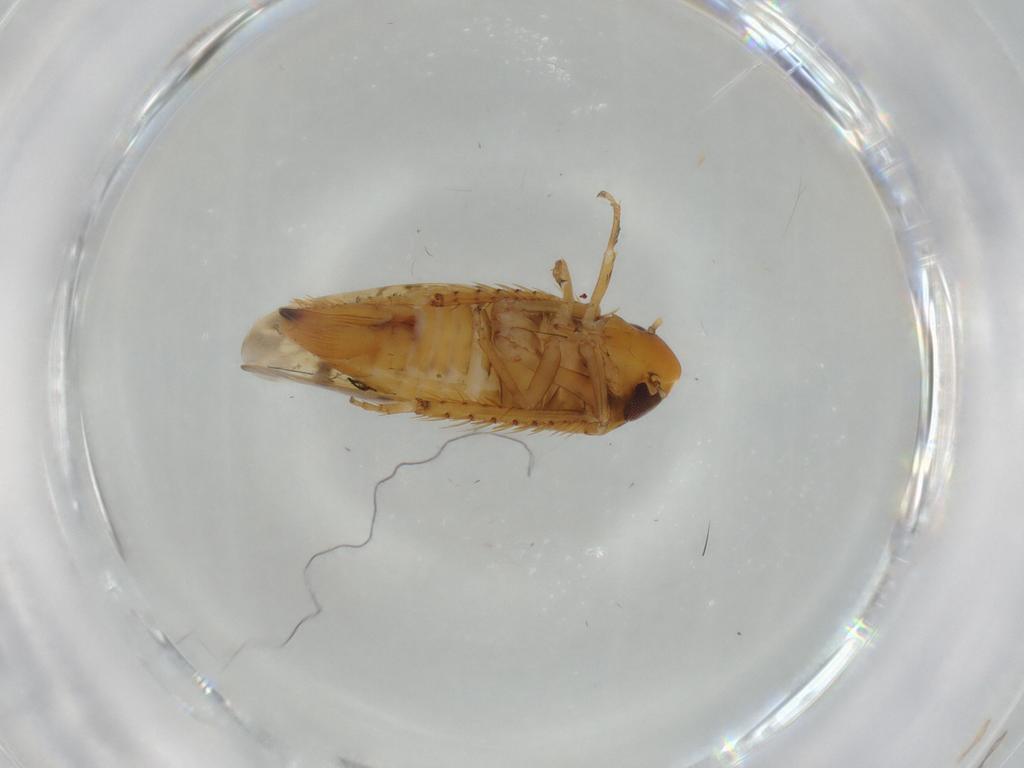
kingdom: Animalia
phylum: Arthropoda
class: Insecta
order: Hemiptera
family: Cicadellidae
